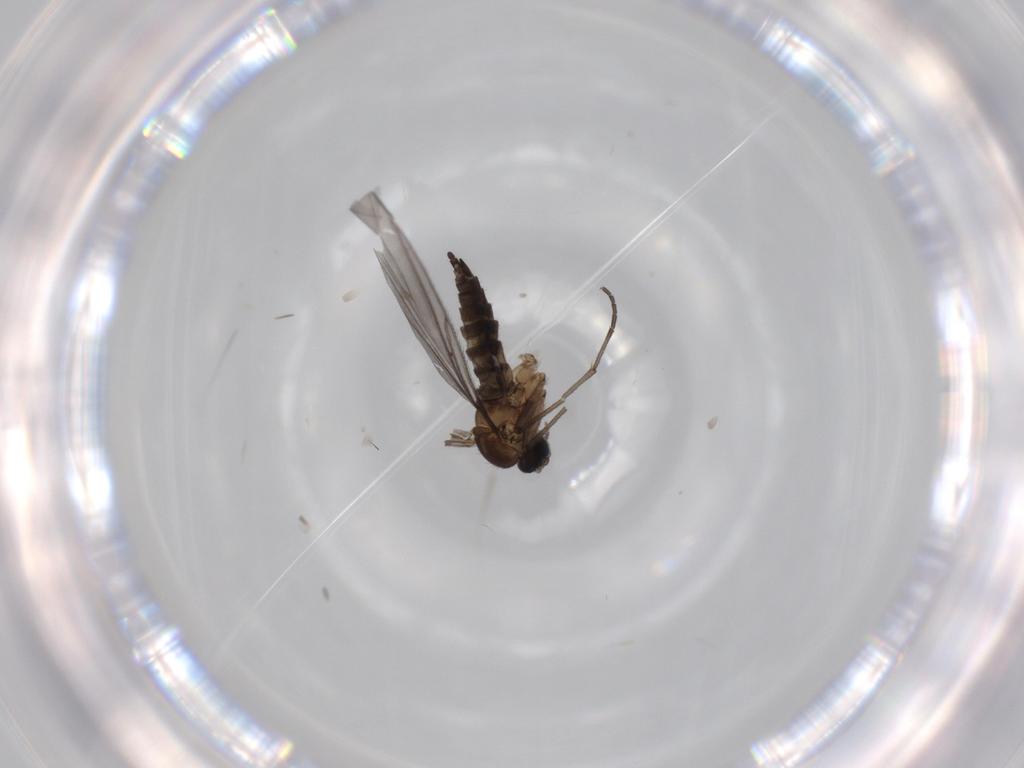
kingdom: Animalia
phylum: Arthropoda
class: Insecta
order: Diptera
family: Sciaridae
